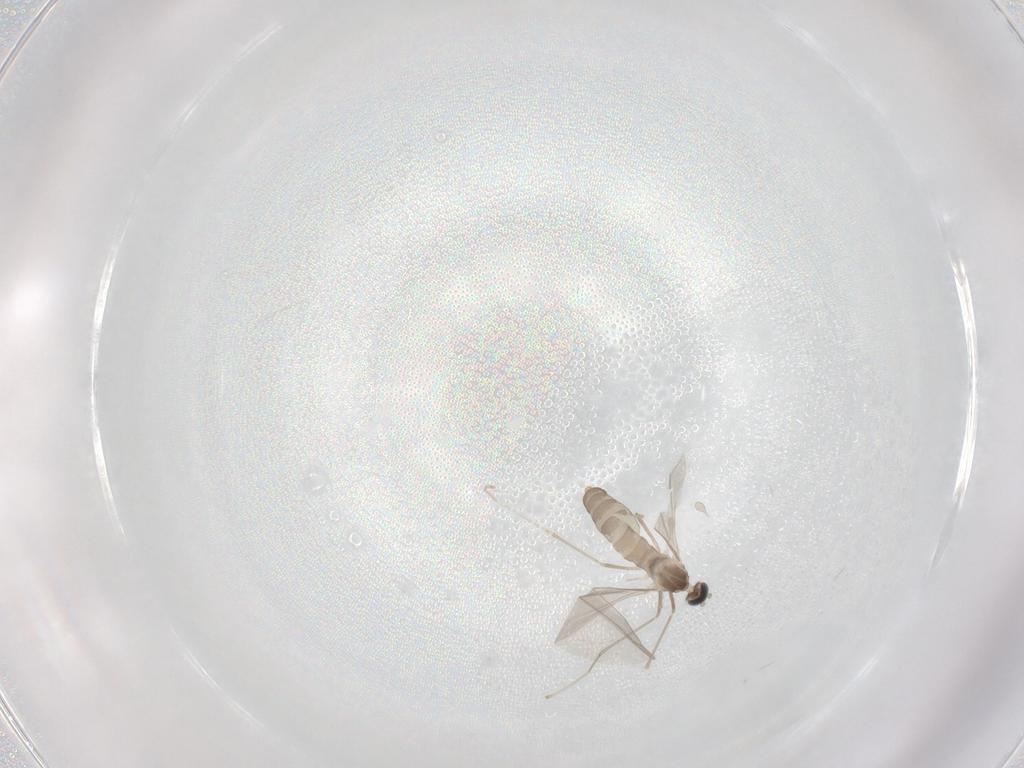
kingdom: Animalia
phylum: Arthropoda
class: Insecta
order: Diptera
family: Cecidomyiidae
